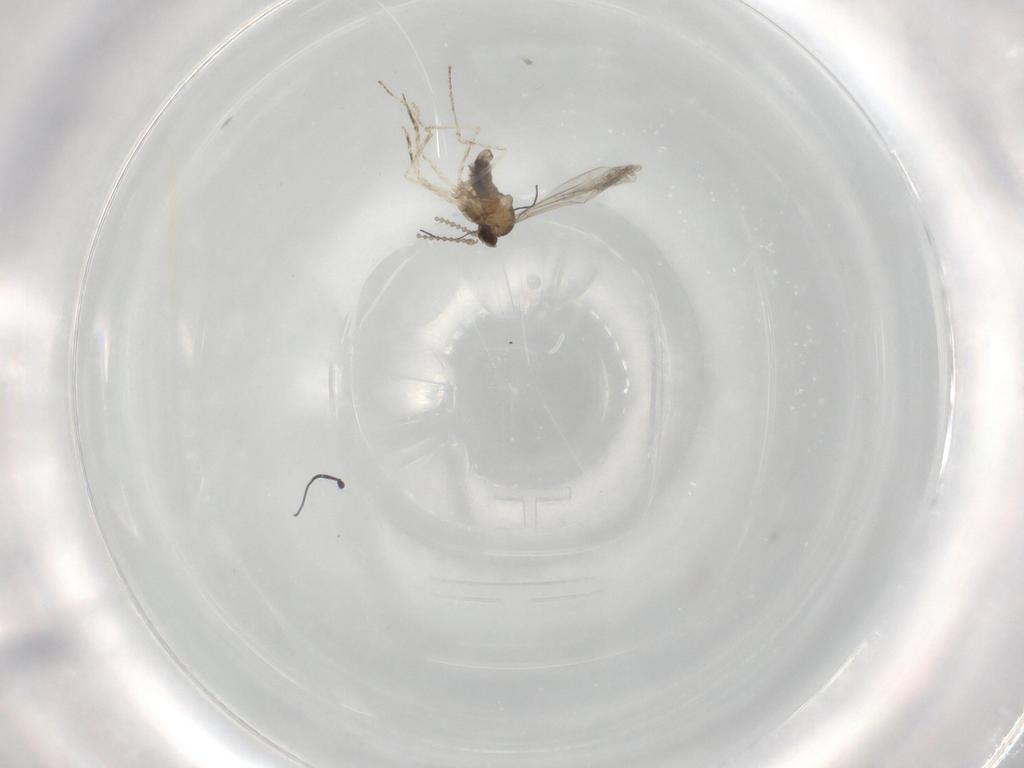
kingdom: Animalia
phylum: Arthropoda
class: Insecta
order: Diptera
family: Cecidomyiidae
